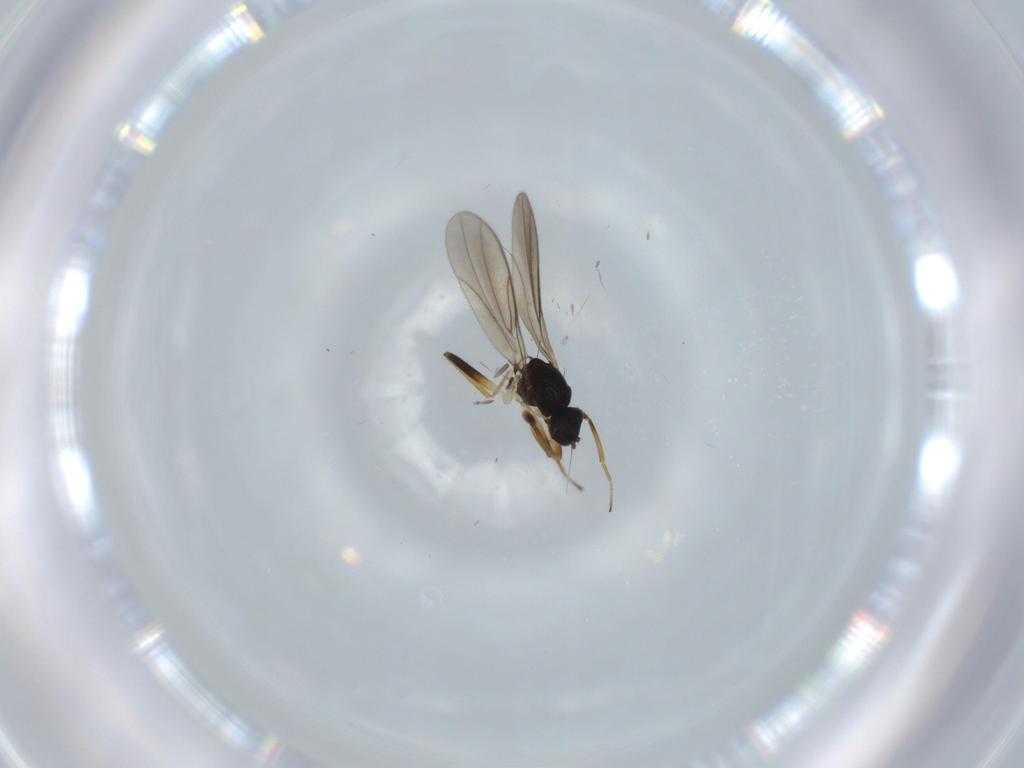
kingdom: Animalia
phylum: Arthropoda
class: Insecta
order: Diptera
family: Hybotidae
